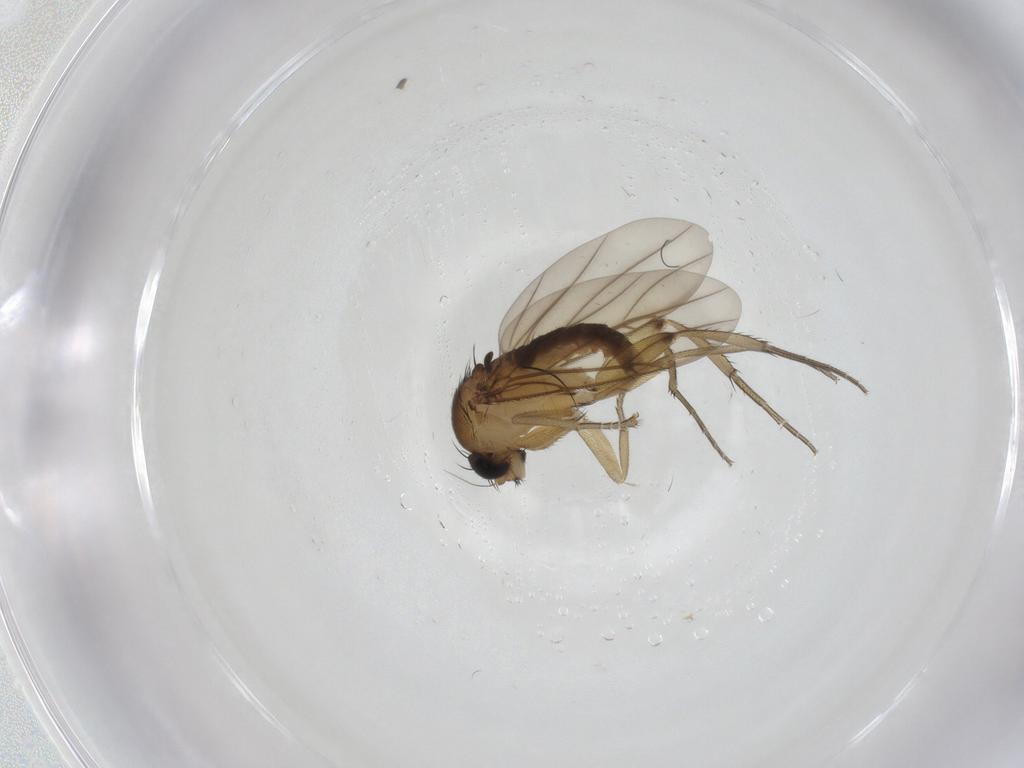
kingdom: Animalia
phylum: Arthropoda
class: Insecta
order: Diptera
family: Phoridae
